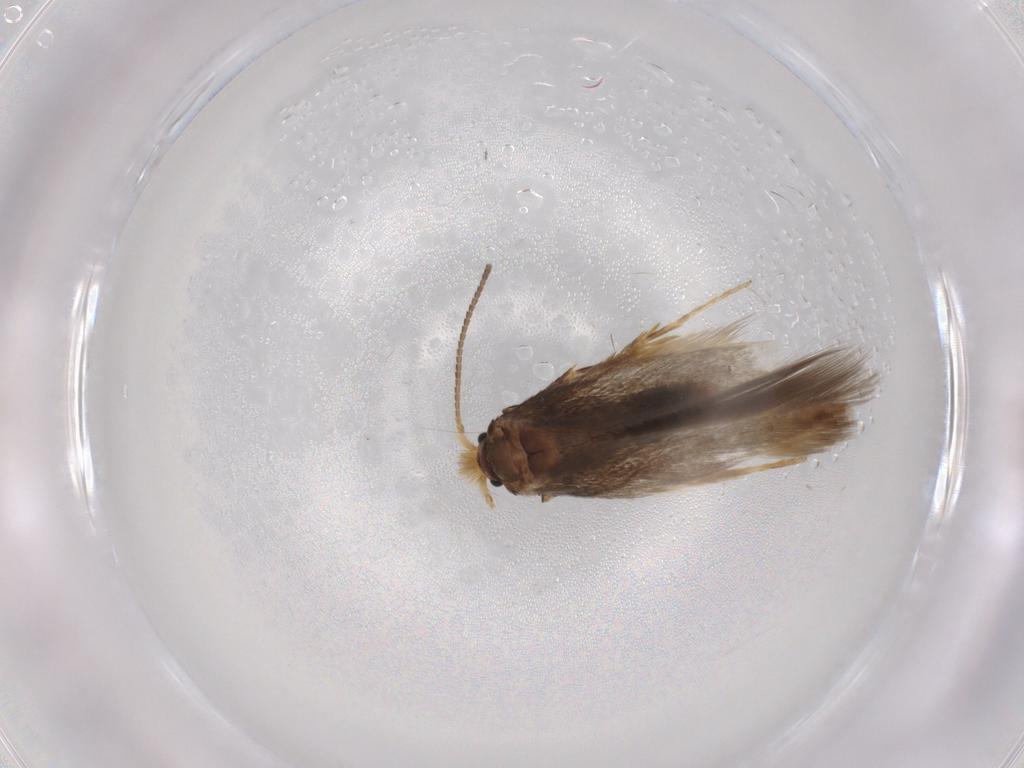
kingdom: Animalia
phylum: Arthropoda
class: Insecta
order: Lepidoptera
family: Nepticulidae
